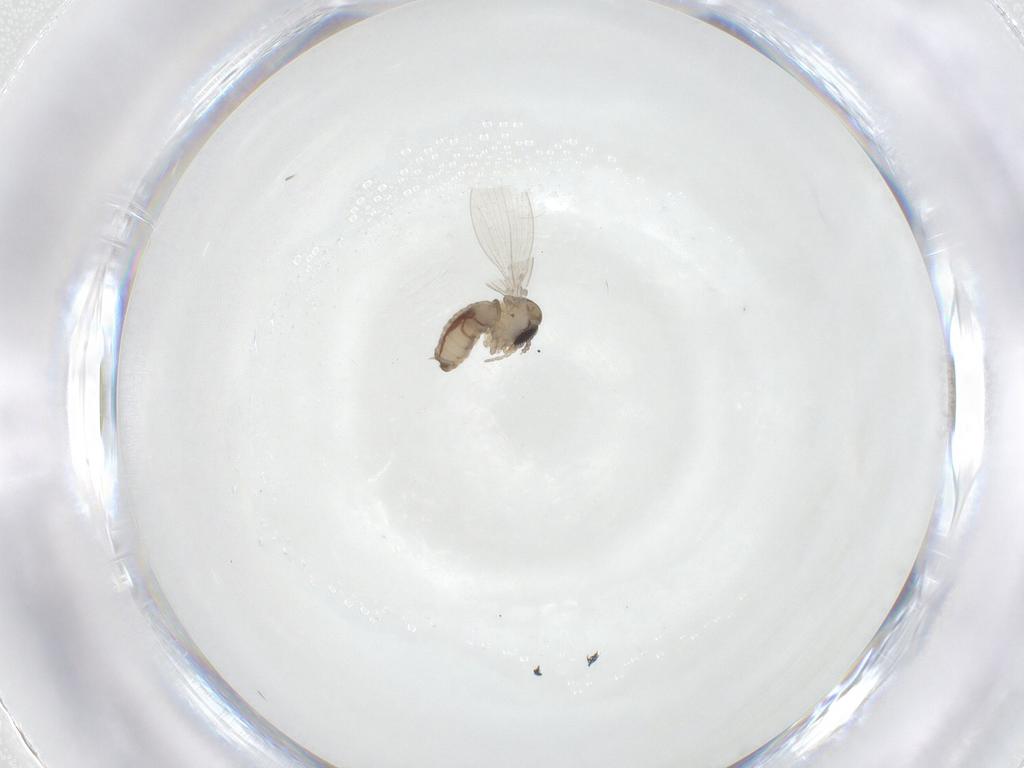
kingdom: Animalia
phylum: Arthropoda
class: Insecta
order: Diptera
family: Psychodidae
